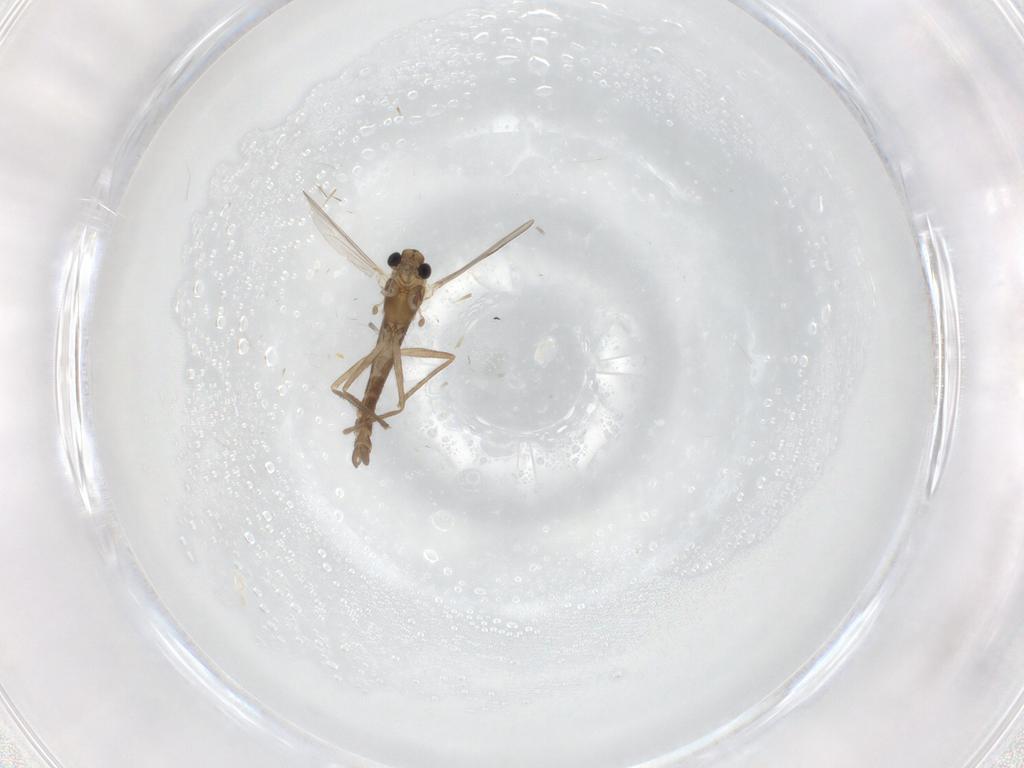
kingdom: Animalia
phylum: Arthropoda
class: Insecta
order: Diptera
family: Chironomidae
